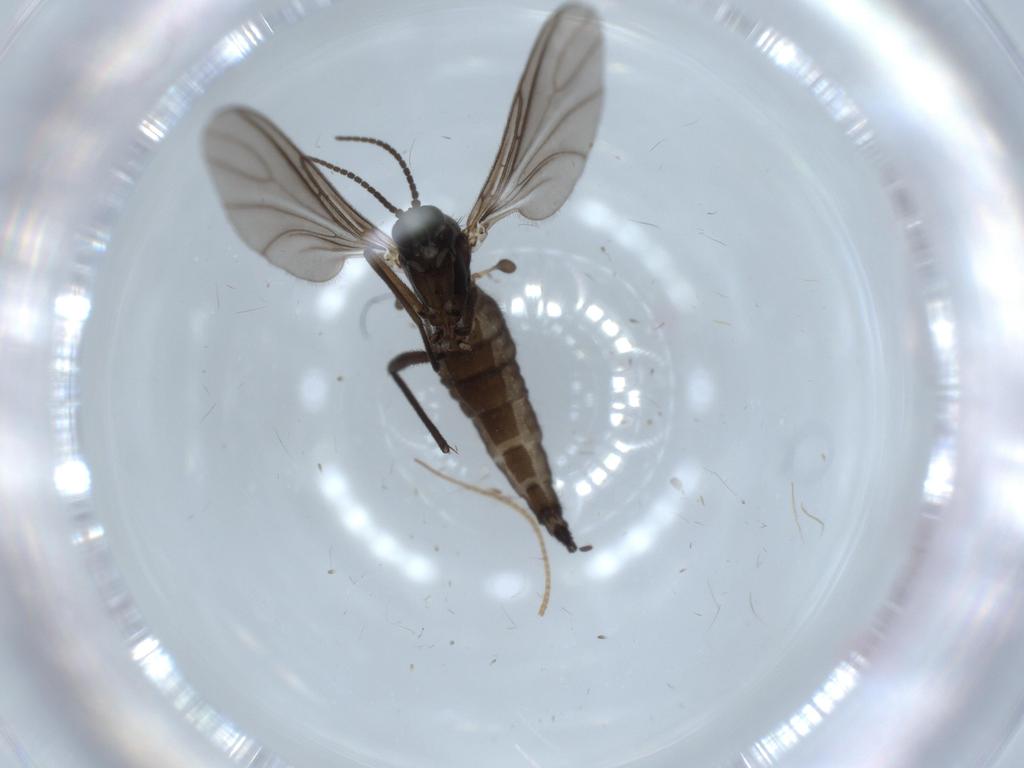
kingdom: Animalia
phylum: Arthropoda
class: Insecta
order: Diptera
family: Sciaridae
